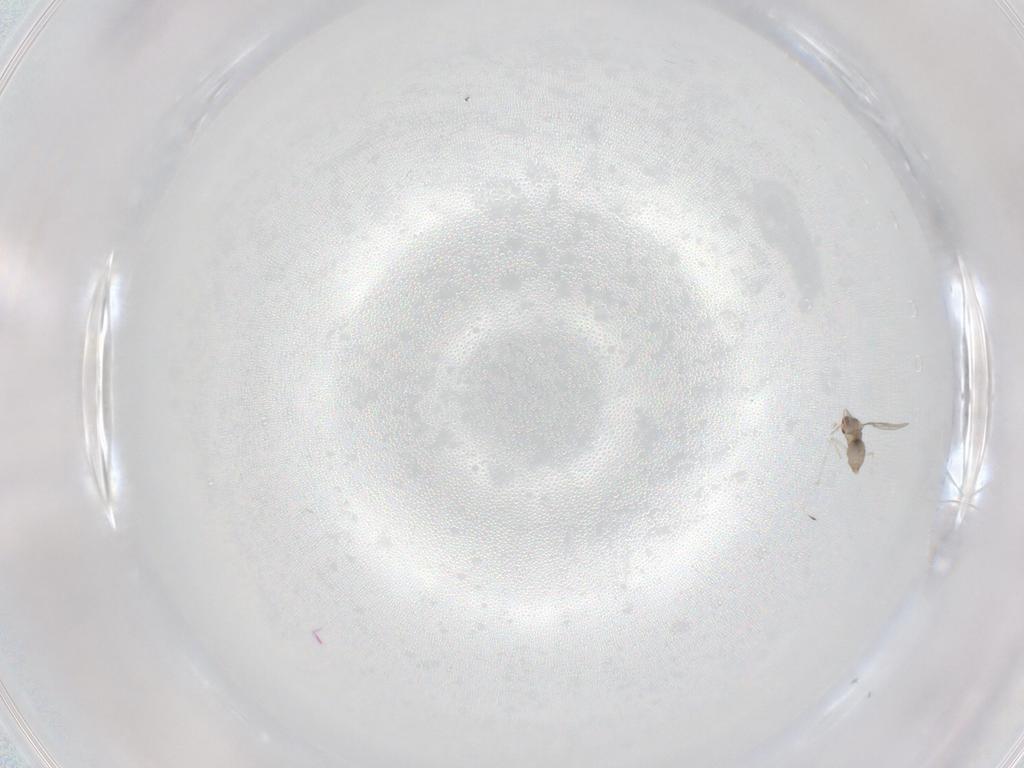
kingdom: Animalia
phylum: Arthropoda
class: Insecta
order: Diptera
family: Cecidomyiidae
